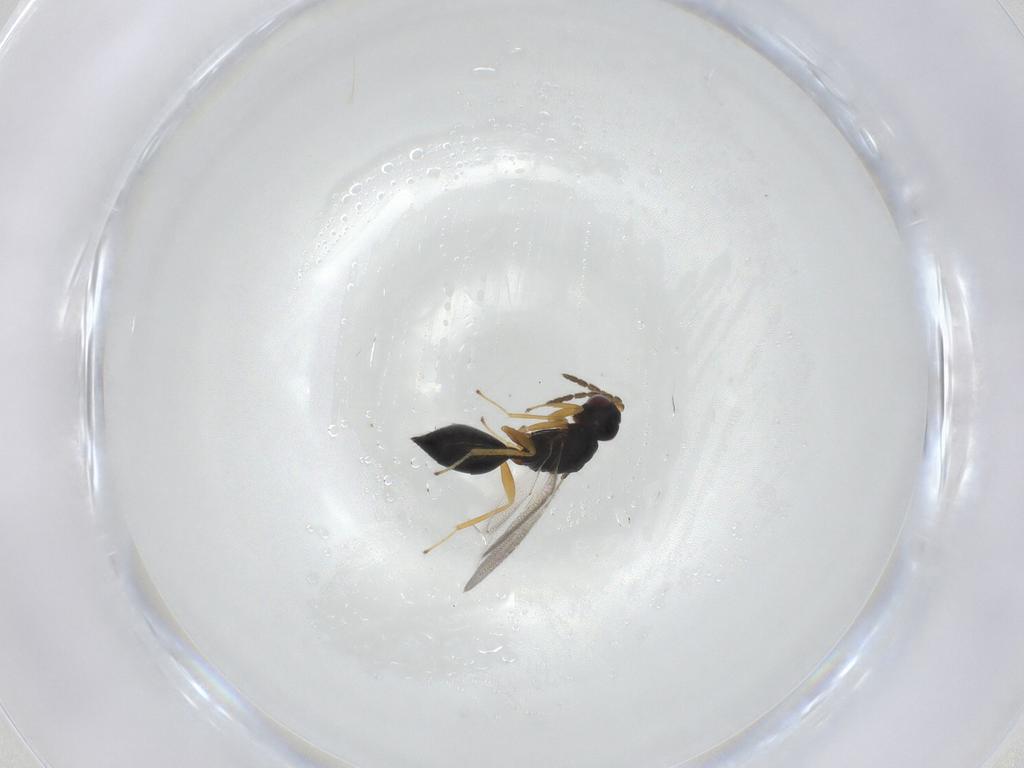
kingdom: Animalia
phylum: Arthropoda
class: Insecta
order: Hymenoptera
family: Eulophidae
